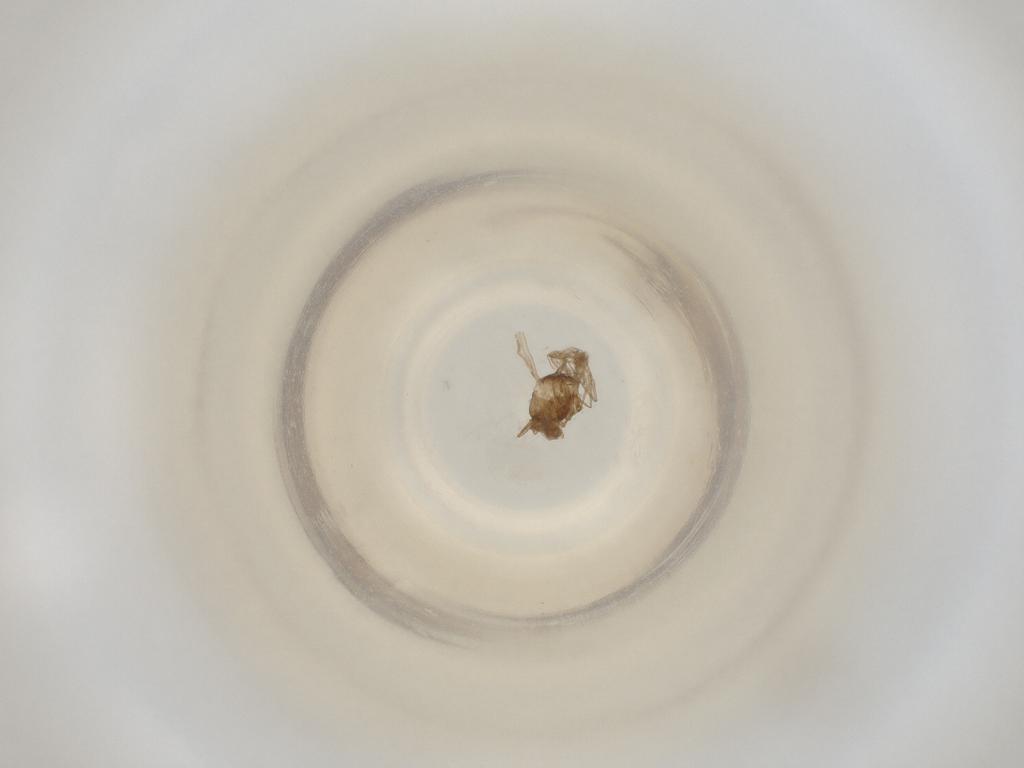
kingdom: Animalia
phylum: Arthropoda
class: Insecta
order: Diptera
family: Cecidomyiidae
